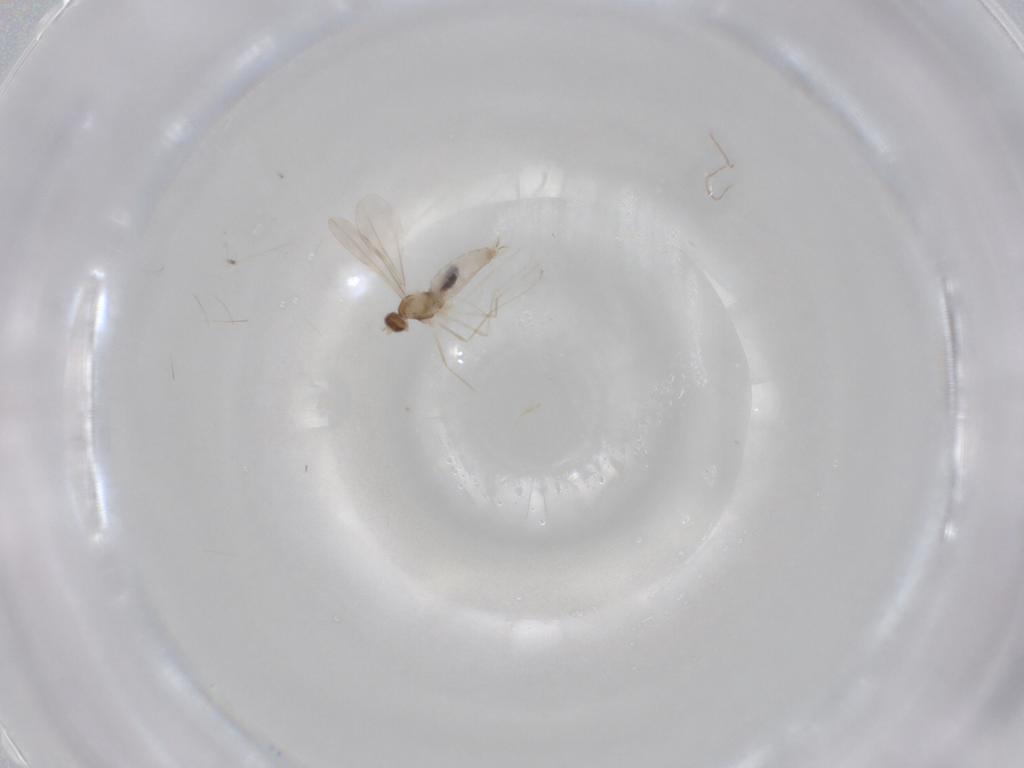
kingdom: Animalia
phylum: Arthropoda
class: Insecta
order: Diptera
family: Cecidomyiidae
